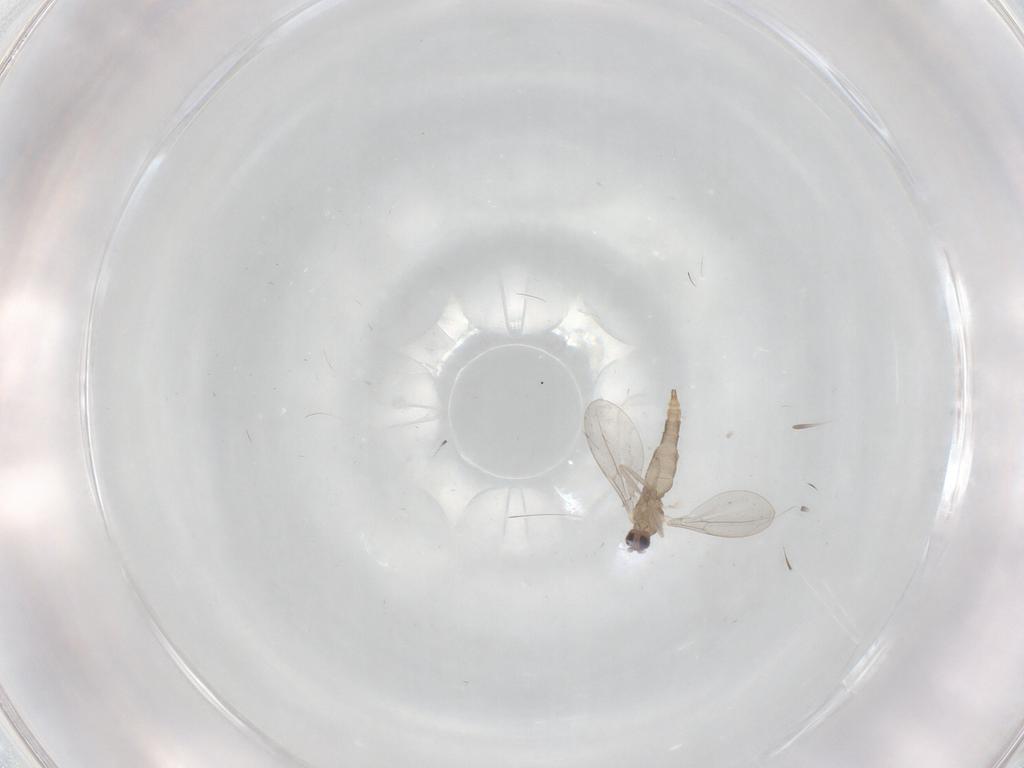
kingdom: Animalia
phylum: Arthropoda
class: Insecta
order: Diptera
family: Cecidomyiidae
